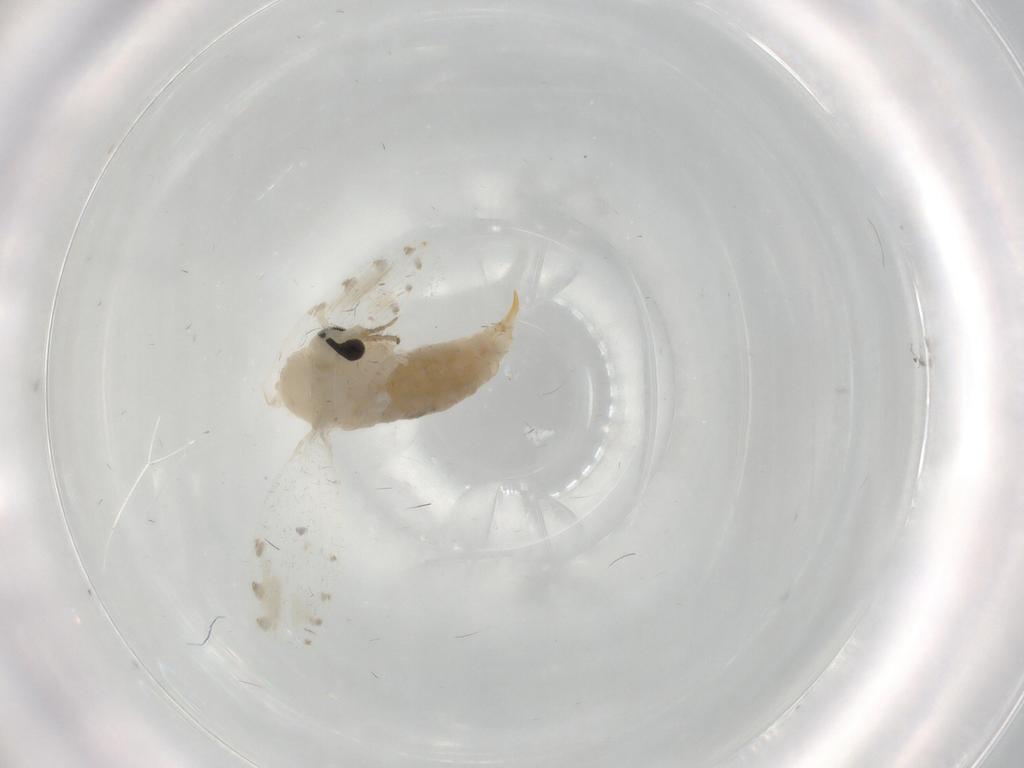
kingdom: Animalia
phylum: Arthropoda
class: Insecta
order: Diptera
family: Psychodidae
